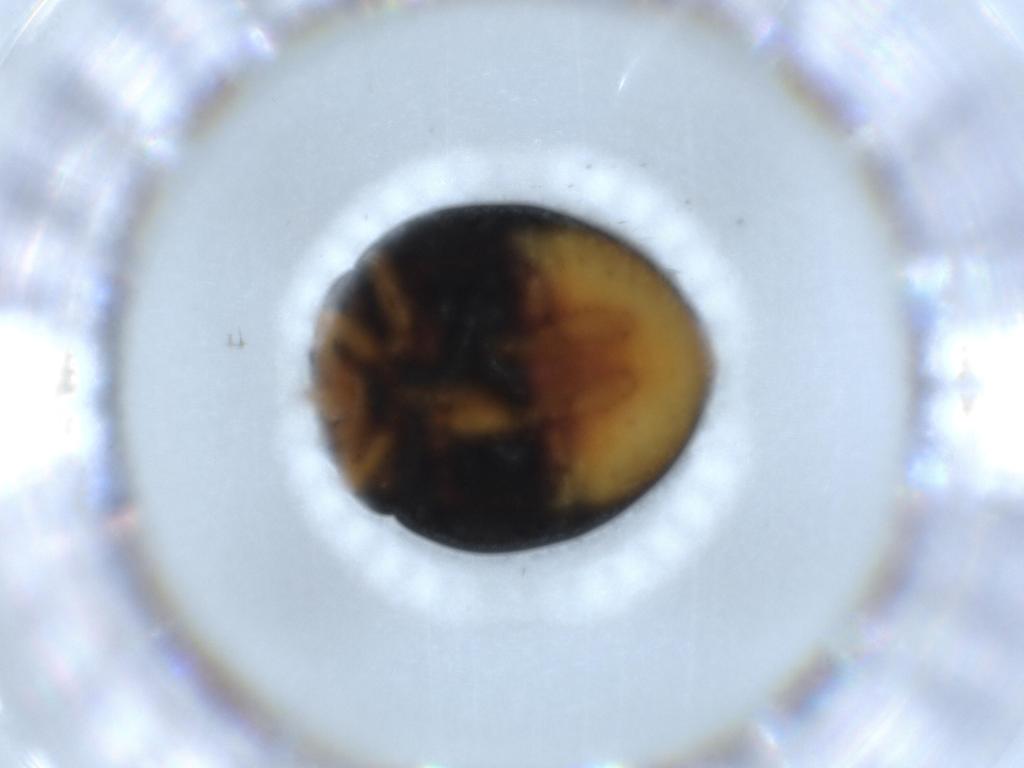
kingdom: Animalia
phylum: Arthropoda
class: Insecta
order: Coleoptera
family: Coccinellidae
